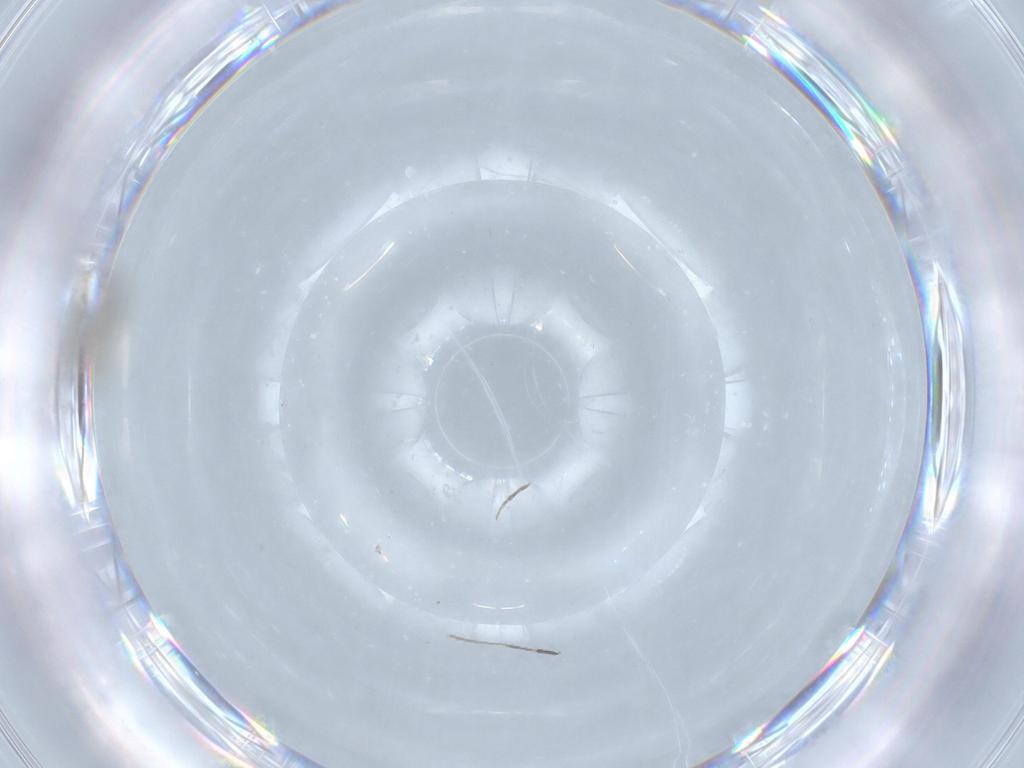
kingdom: Animalia
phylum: Arthropoda
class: Insecta
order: Diptera
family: Chironomidae
